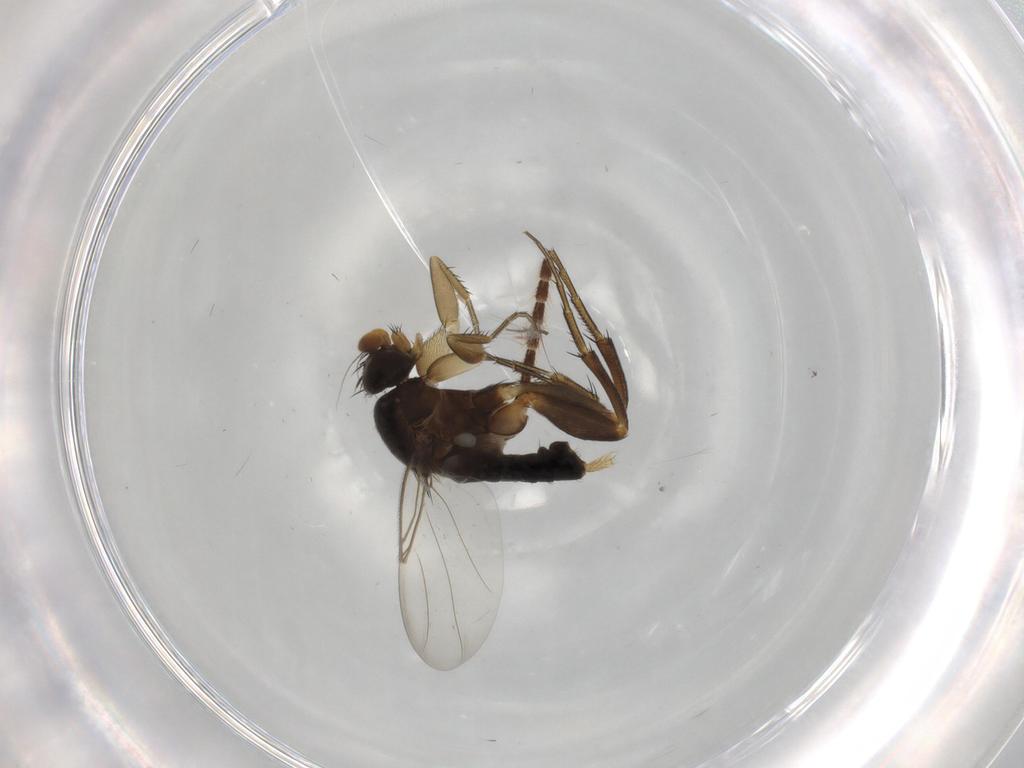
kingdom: Animalia
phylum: Arthropoda
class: Insecta
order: Diptera
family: Phoridae
